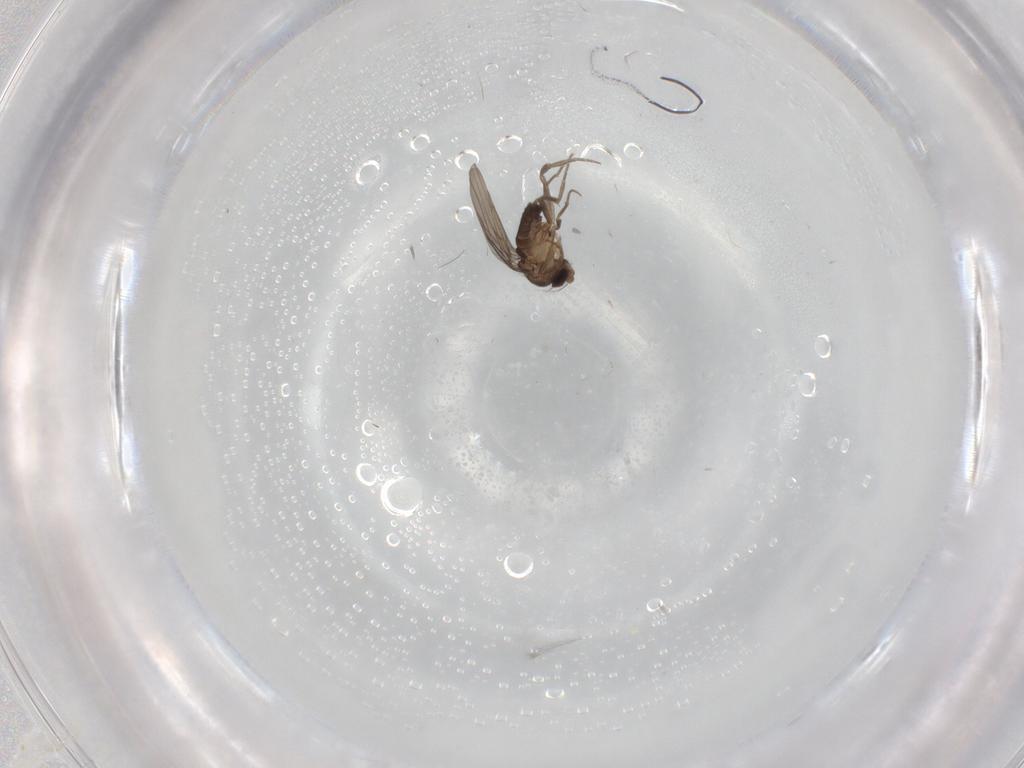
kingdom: Animalia
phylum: Arthropoda
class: Insecta
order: Diptera
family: Phoridae
